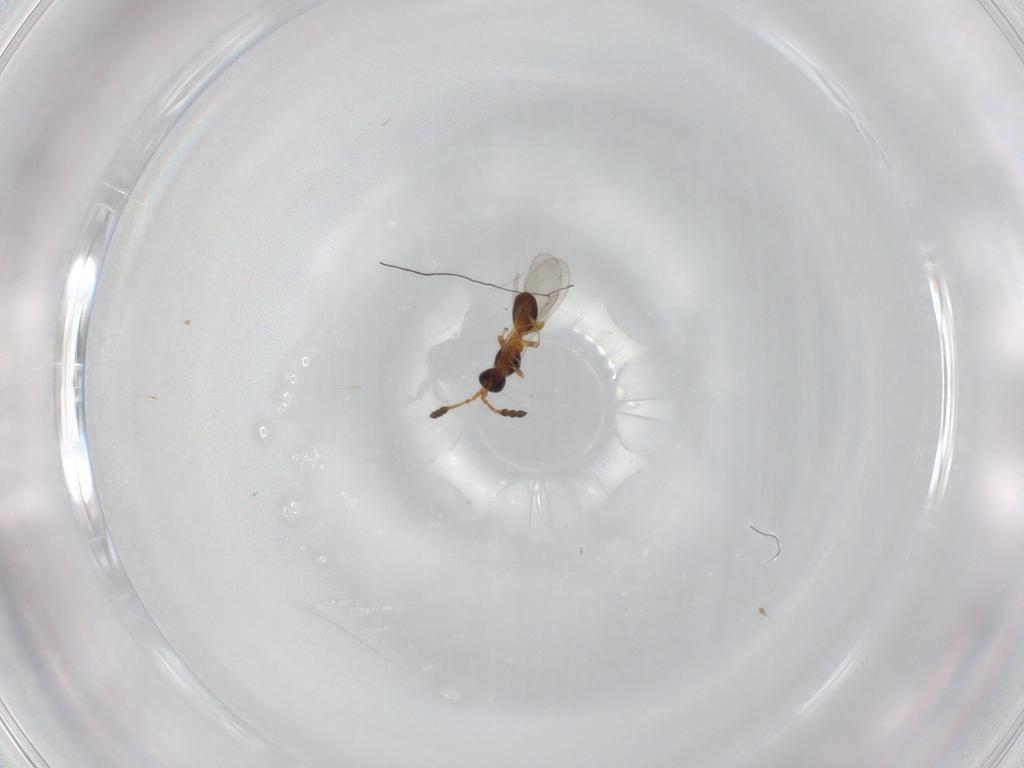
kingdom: Animalia
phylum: Arthropoda
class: Insecta
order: Hymenoptera
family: Diapriidae
